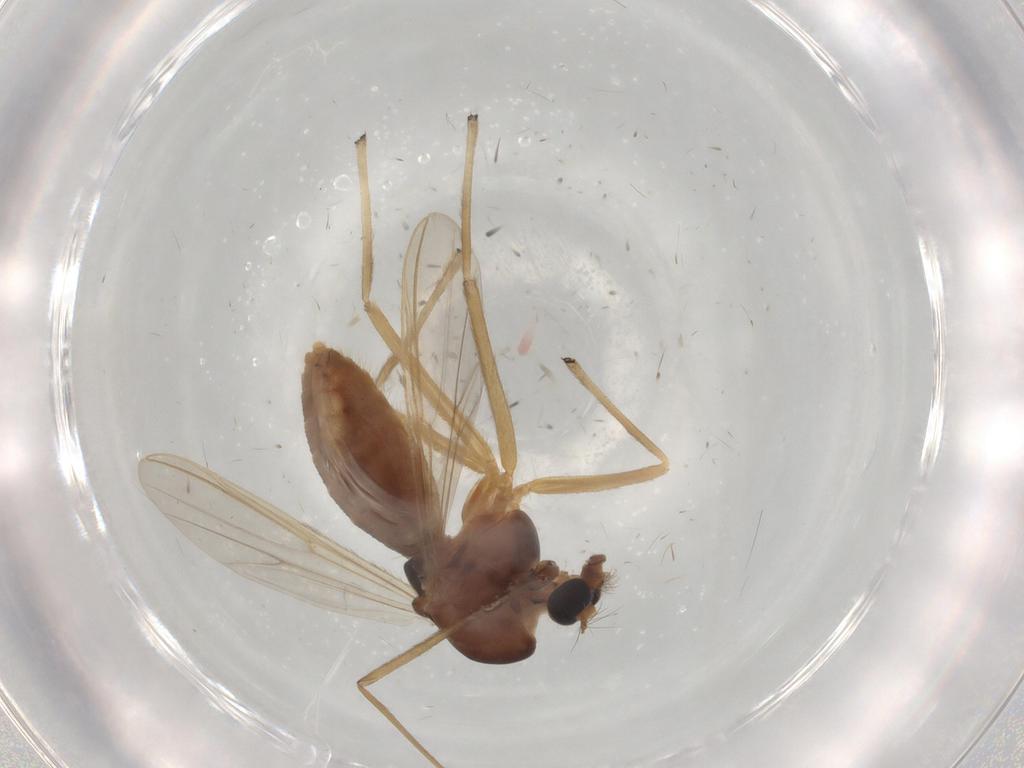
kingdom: Animalia
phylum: Arthropoda
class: Insecta
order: Diptera
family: Chironomidae
